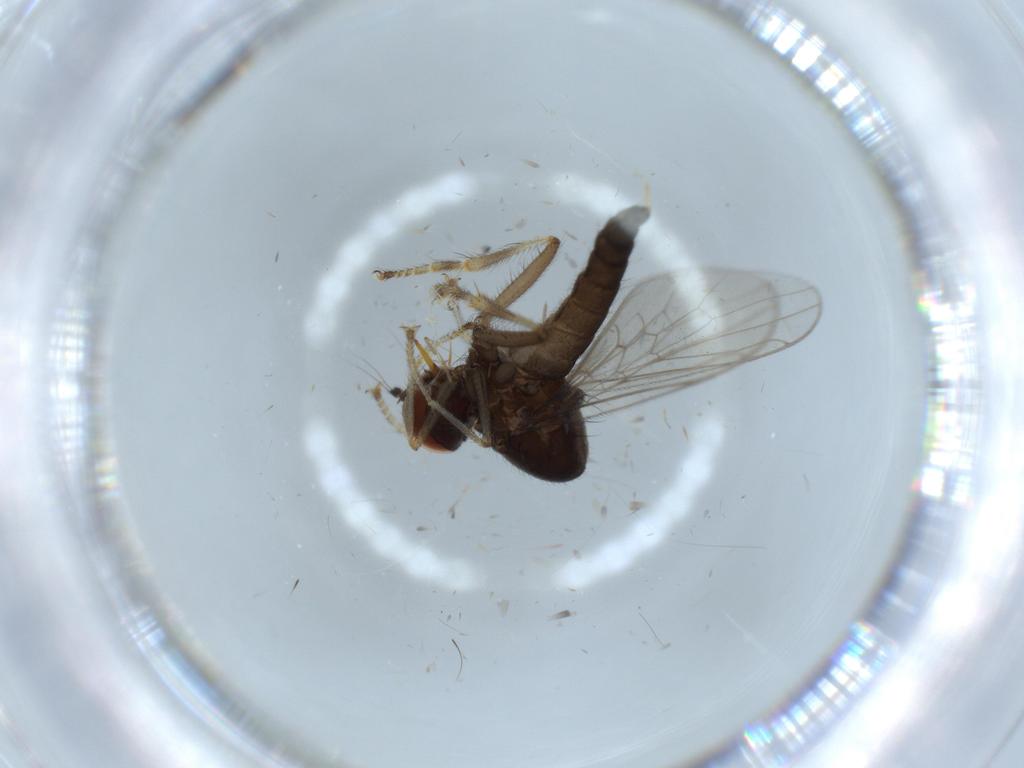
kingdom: Animalia
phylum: Arthropoda
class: Insecta
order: Diptera
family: Hybotidae
